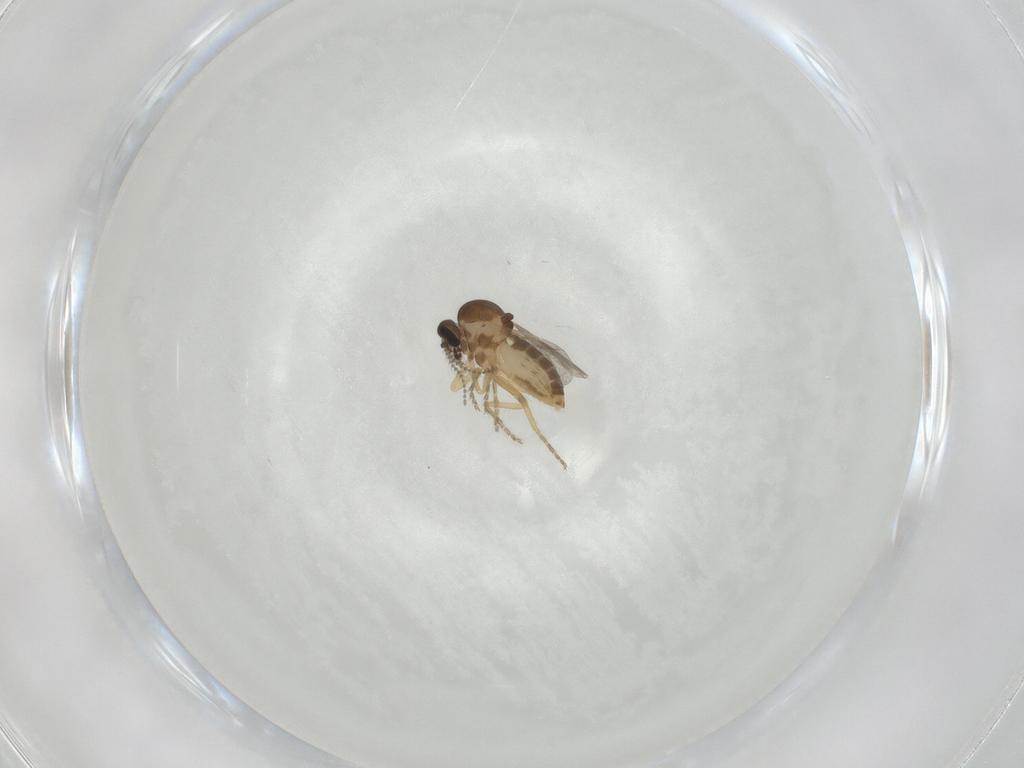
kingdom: Animalia
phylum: Arthropoda
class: Insecta
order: Diptera
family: Ceratopogonidae
